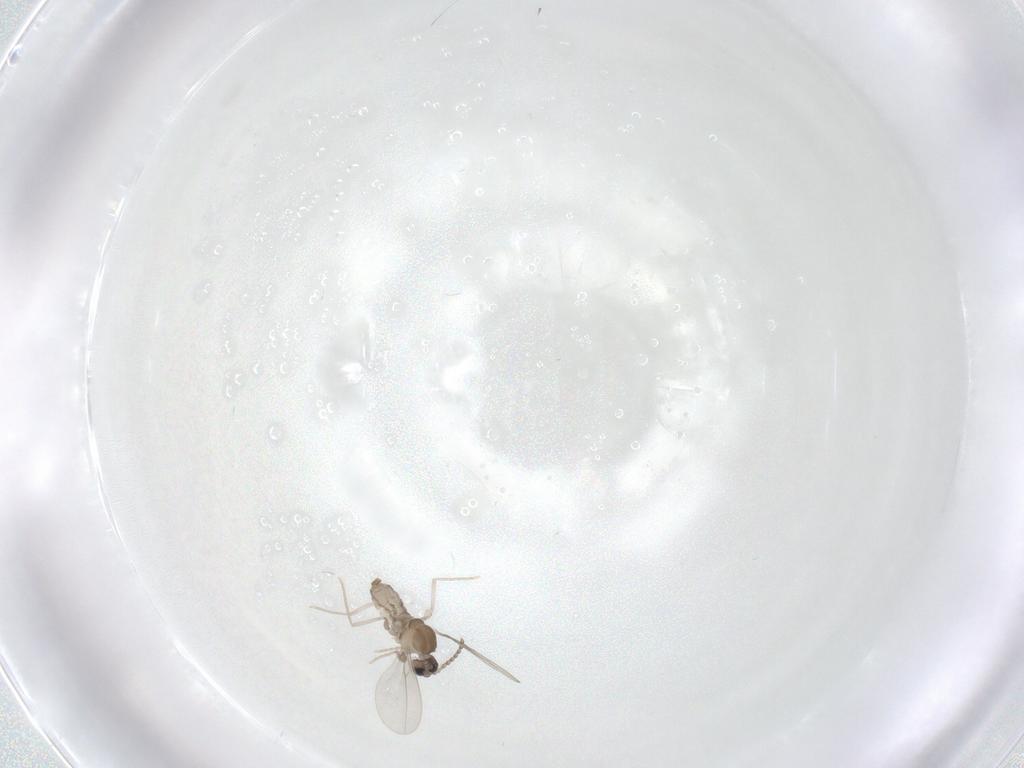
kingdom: Animalia
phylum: Arthropoda
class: Insecta
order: Diptera
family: Cecidomyiidae
